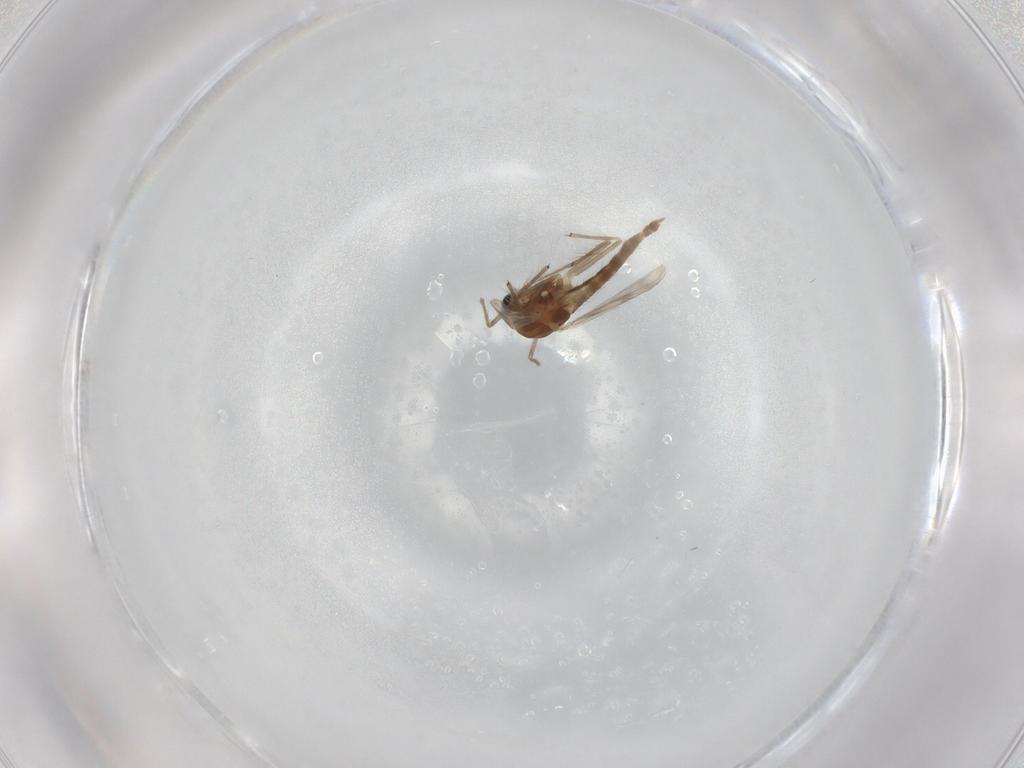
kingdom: Animalia
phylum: Arthropoda
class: Insecta
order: Diptera
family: Chironomidae
